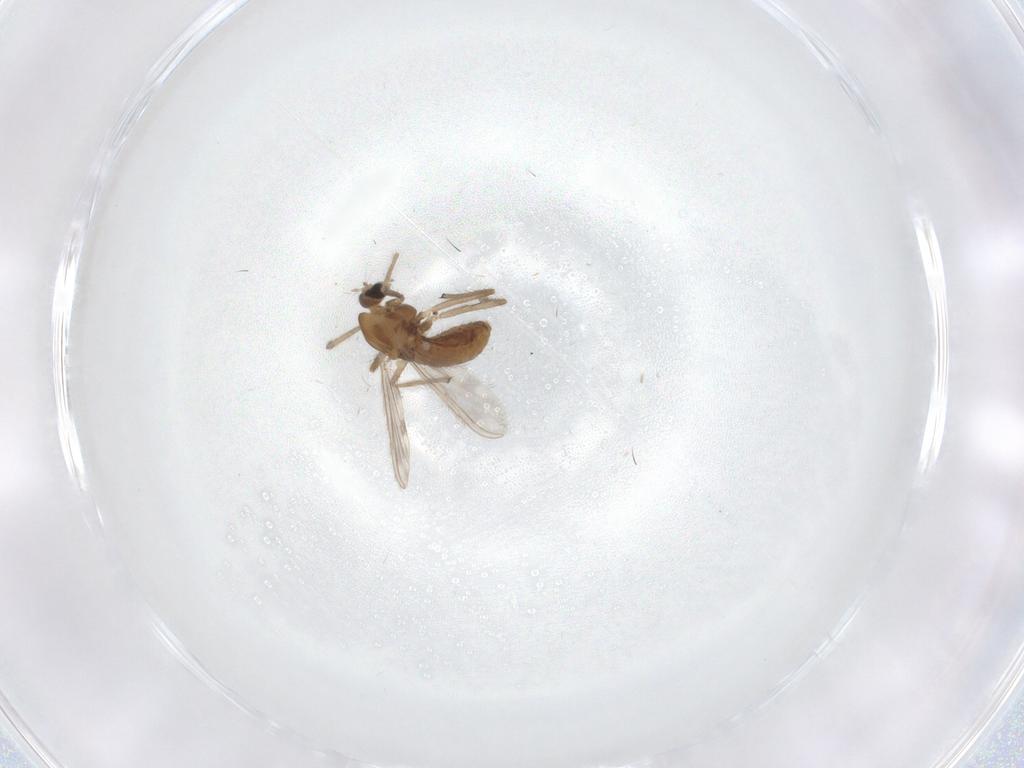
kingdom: Animalia
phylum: Arthropoda
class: Insecta
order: Diptera
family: Chironomidae
